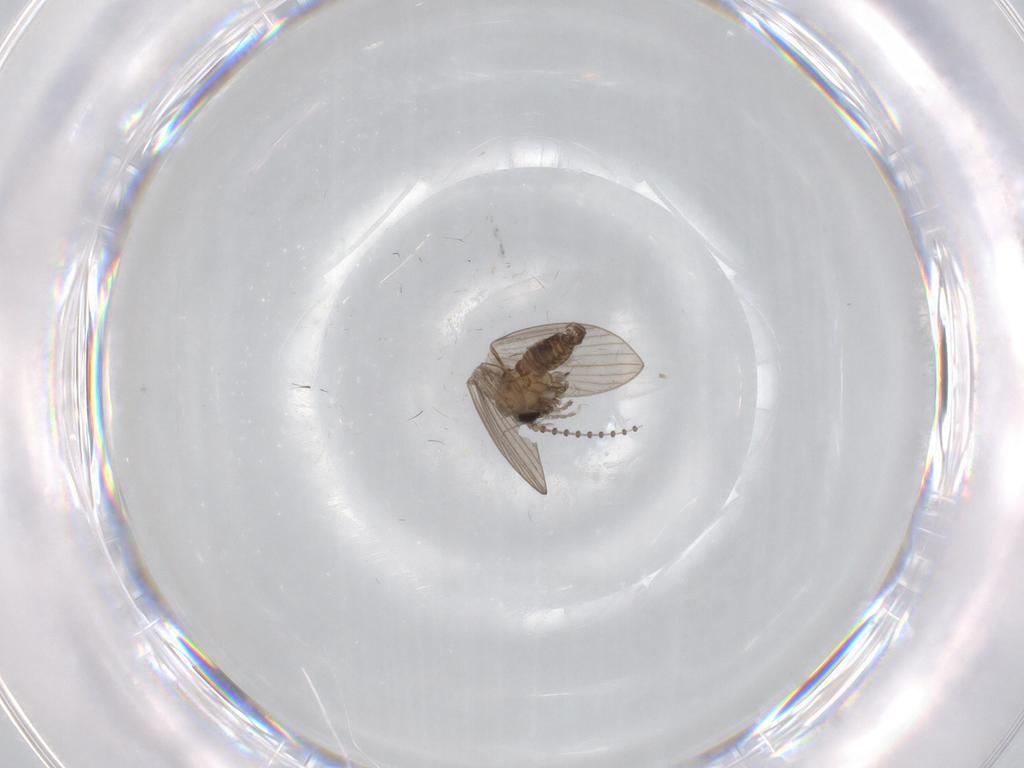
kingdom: Animalia
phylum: Arthropoda
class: Insecta
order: Diptera
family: Psychodidae
